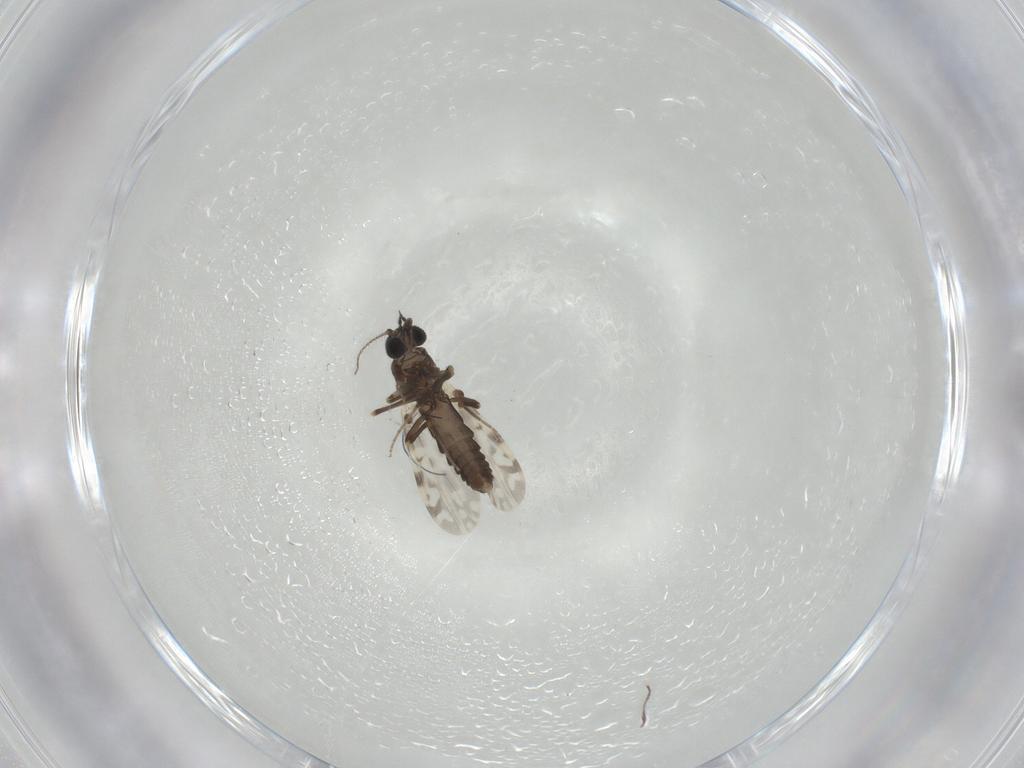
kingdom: Animalia
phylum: Arthropoda
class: Insecta
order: Diptera
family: Ceratopogonidae
